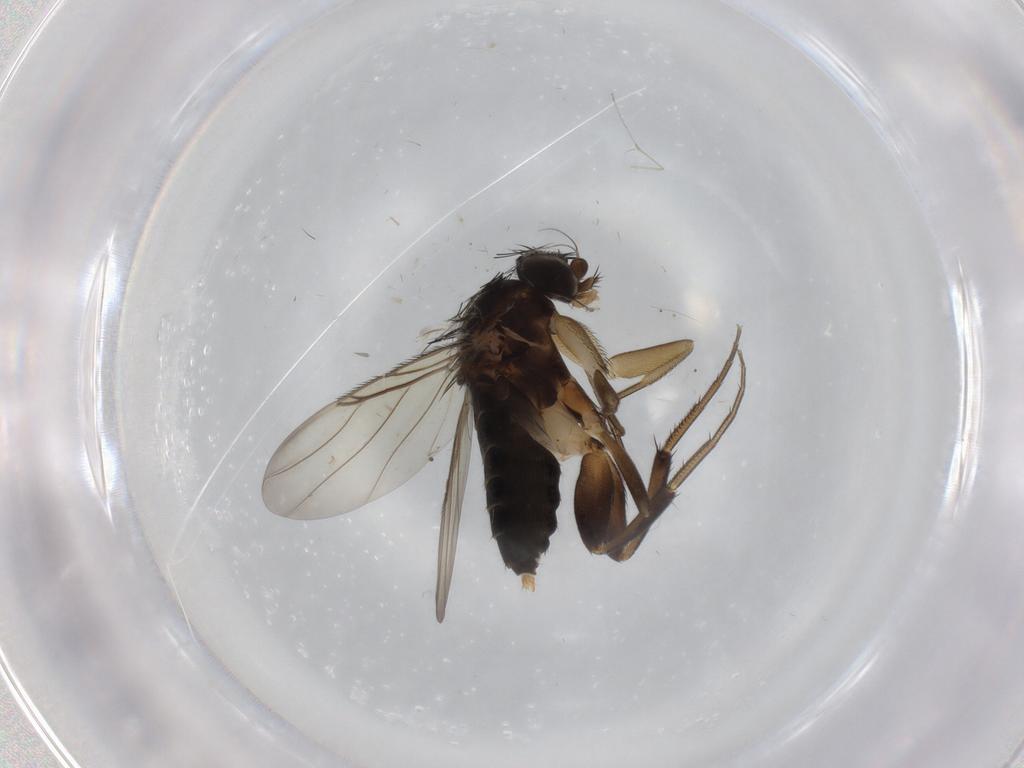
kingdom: Animalia
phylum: Arthropoda
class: Insecta
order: Diptera
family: Phoridae
